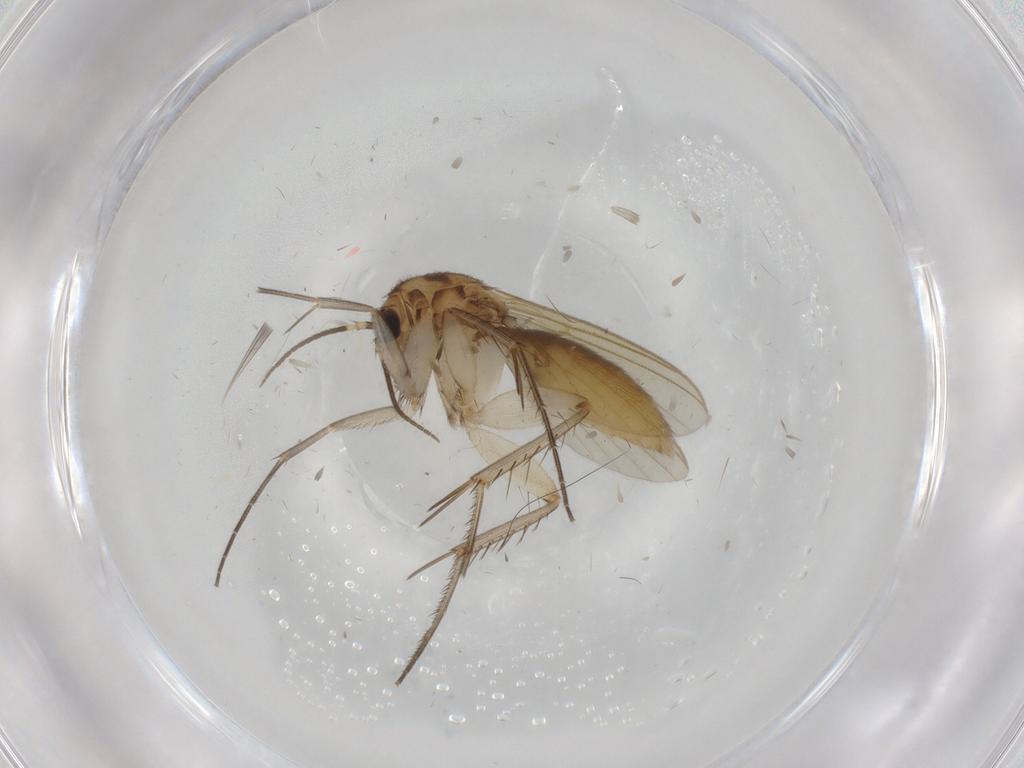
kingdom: Animalia
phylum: Arthropoda
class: Insecta
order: Diptera
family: Mycetophilidae
